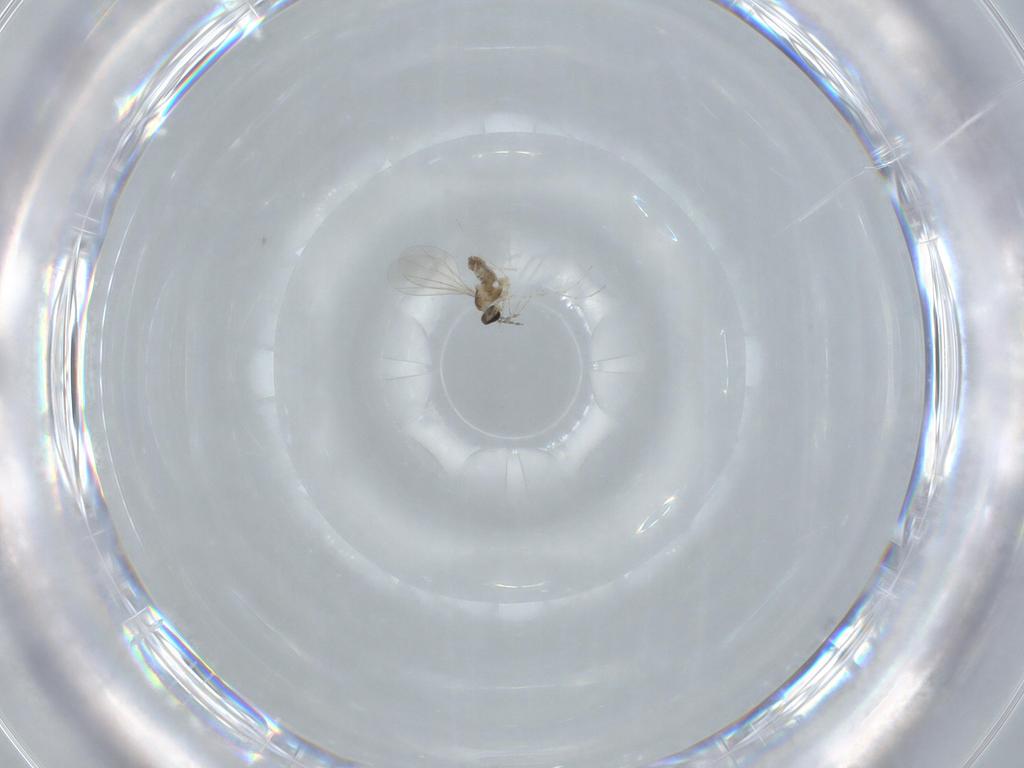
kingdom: Animalia
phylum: Arthropoda
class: Insecta
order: Diptera
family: Cecidomyiidae
